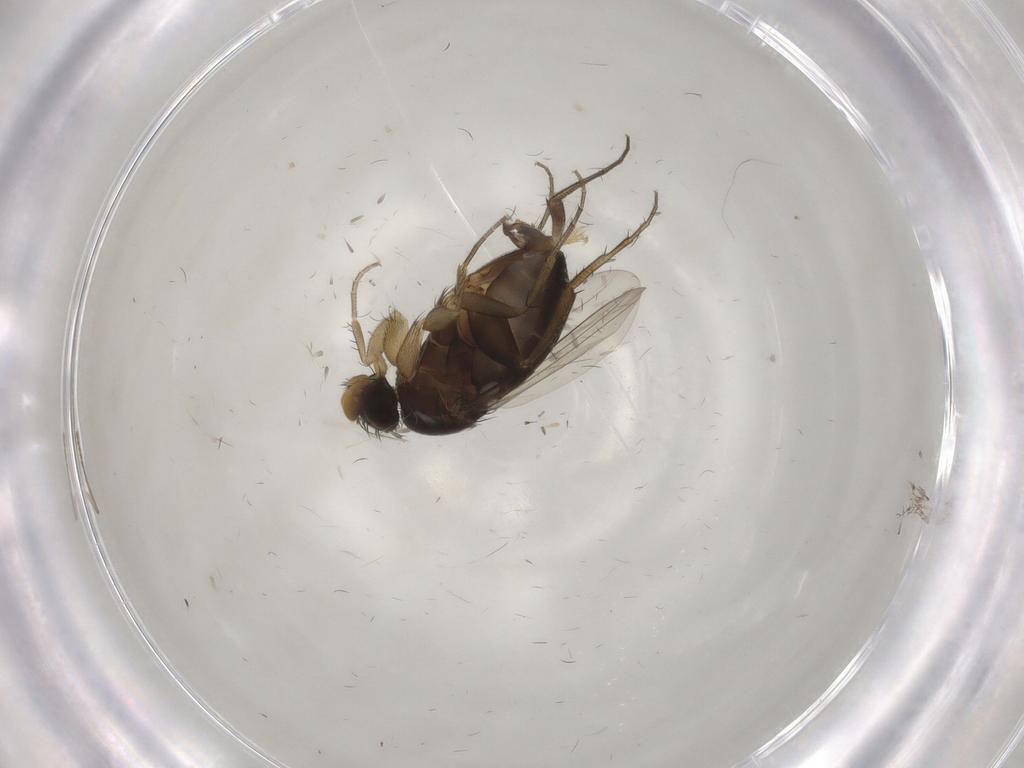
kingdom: Animalia
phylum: Arthropoda
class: Insecta
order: Diptera
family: Phoridae
